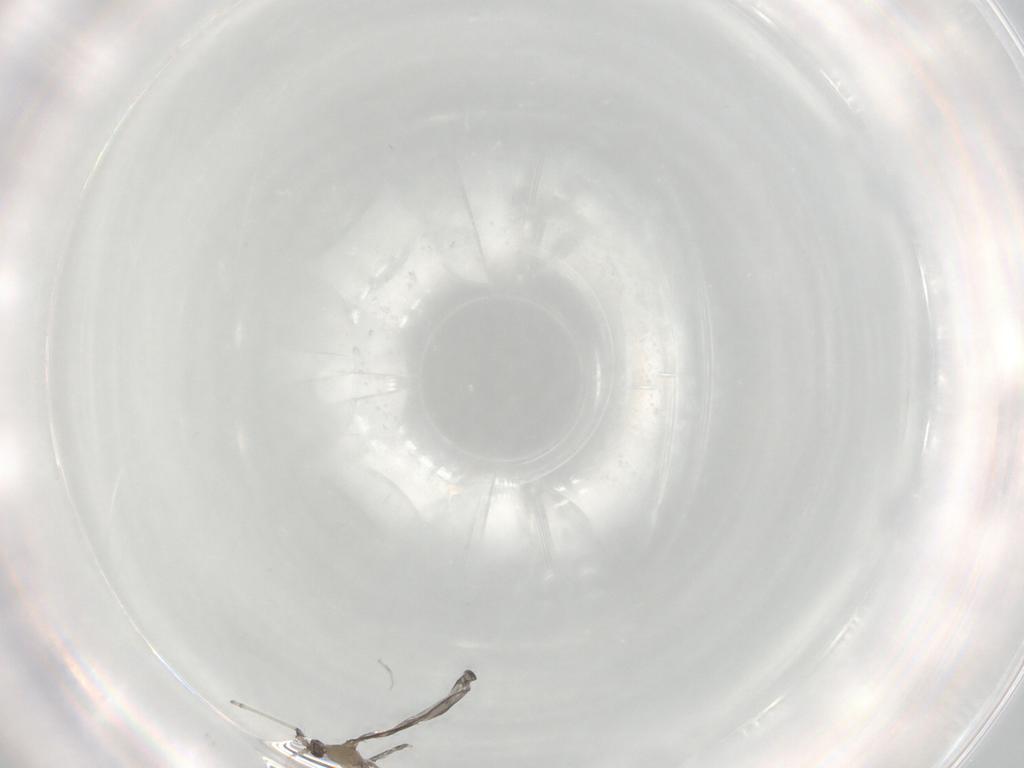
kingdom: Animalia
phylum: Arthropoda
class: Insecta
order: Diptera
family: Cecidomyiidae
